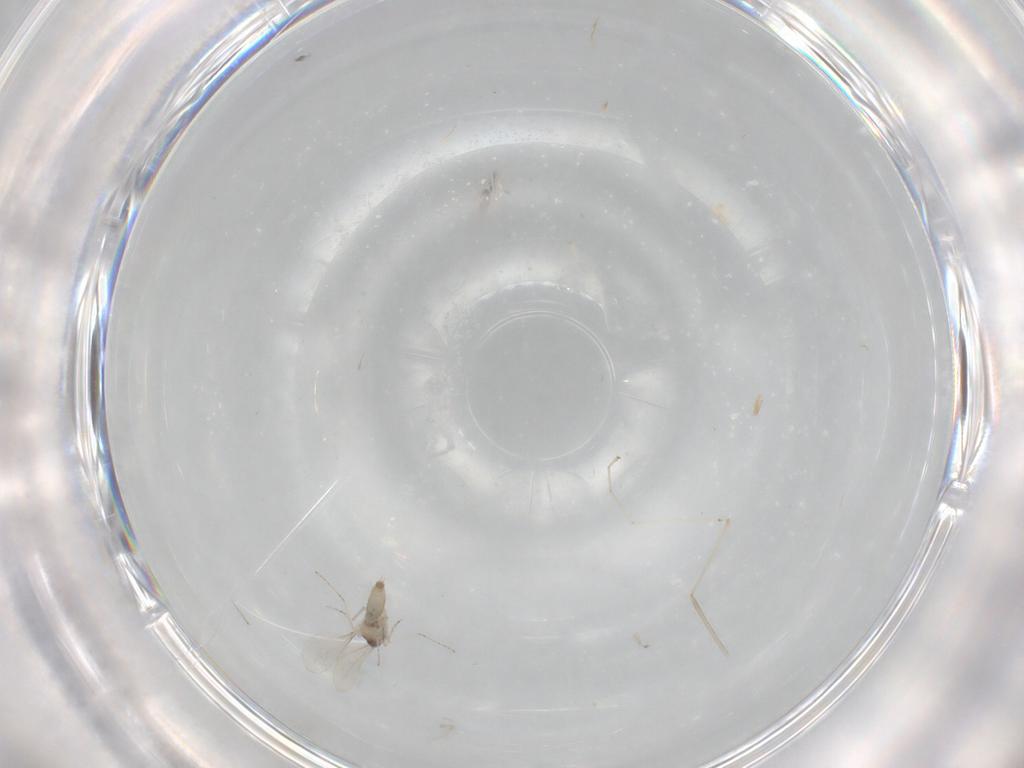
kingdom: Animalia
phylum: Arthropoda
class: Insecta
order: Diptera
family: Cecidomyiidae
